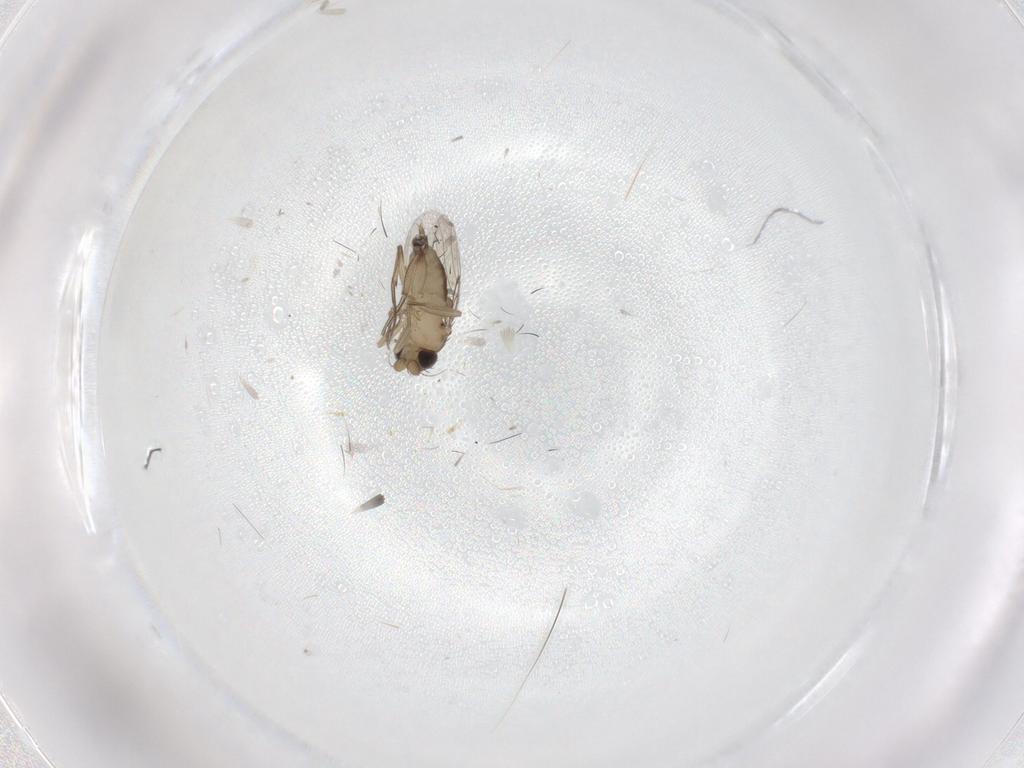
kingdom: Animalia
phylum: Arthropoda
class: Insecta
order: Diptera
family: Phoridae
